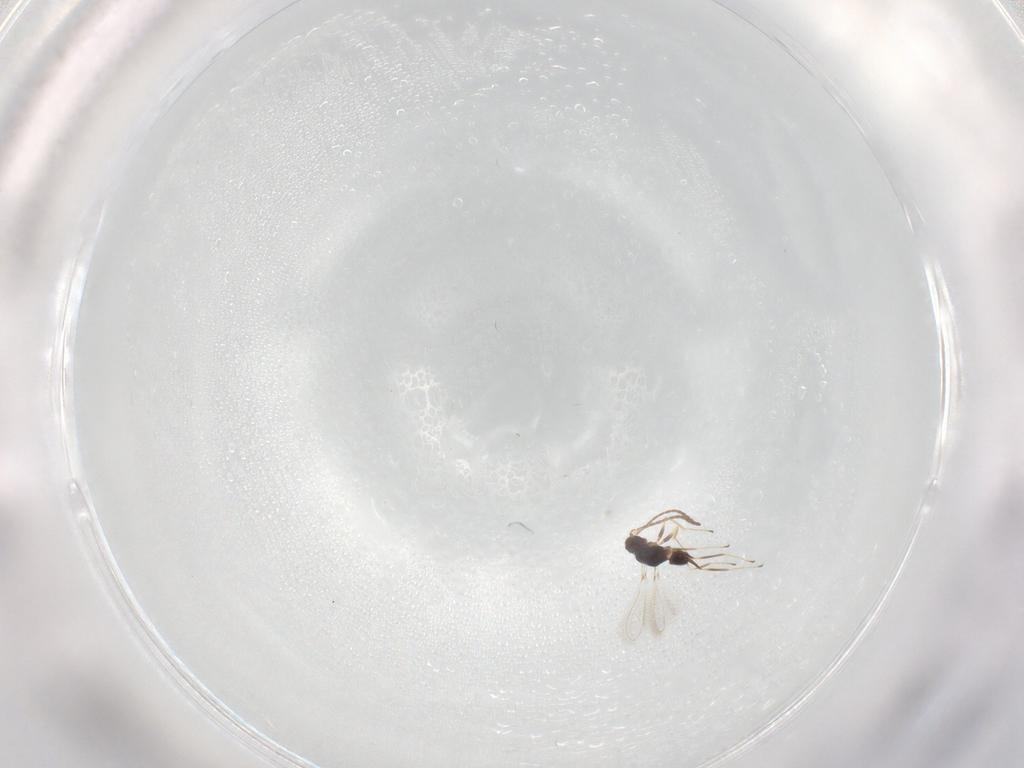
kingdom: Animalia
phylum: Arthropoda
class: Insecta
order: Hymenoptera
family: Mymaridae
